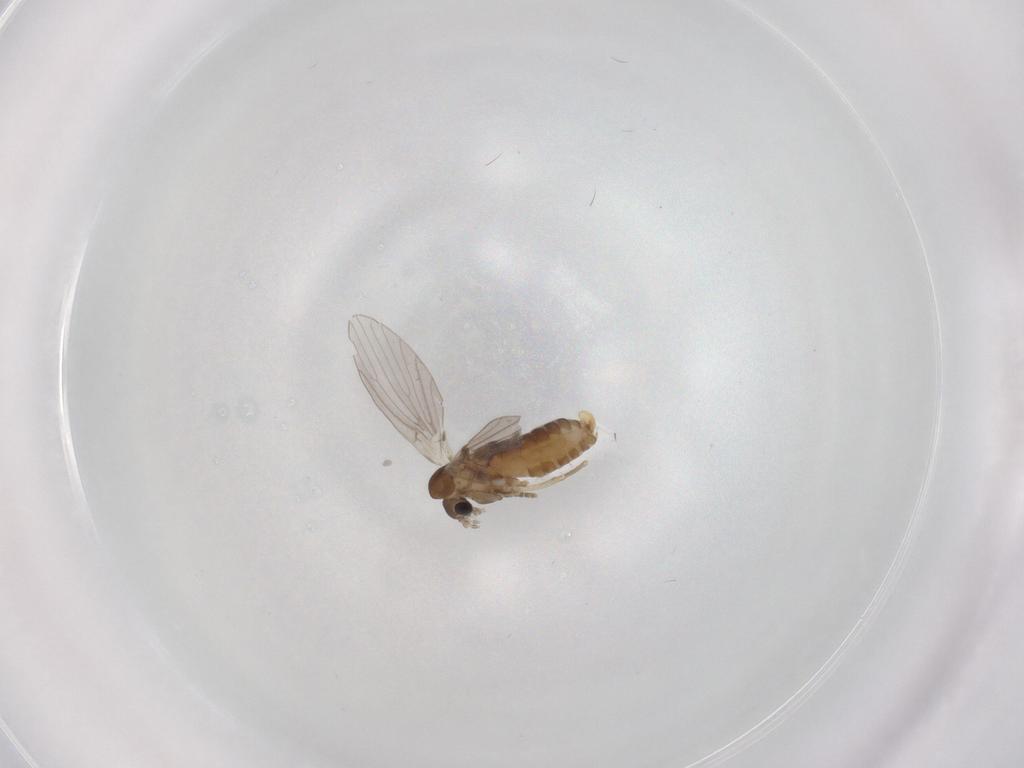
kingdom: Animalia
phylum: Arthropoda
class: Insecta
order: Diptera
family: Psychodidae
